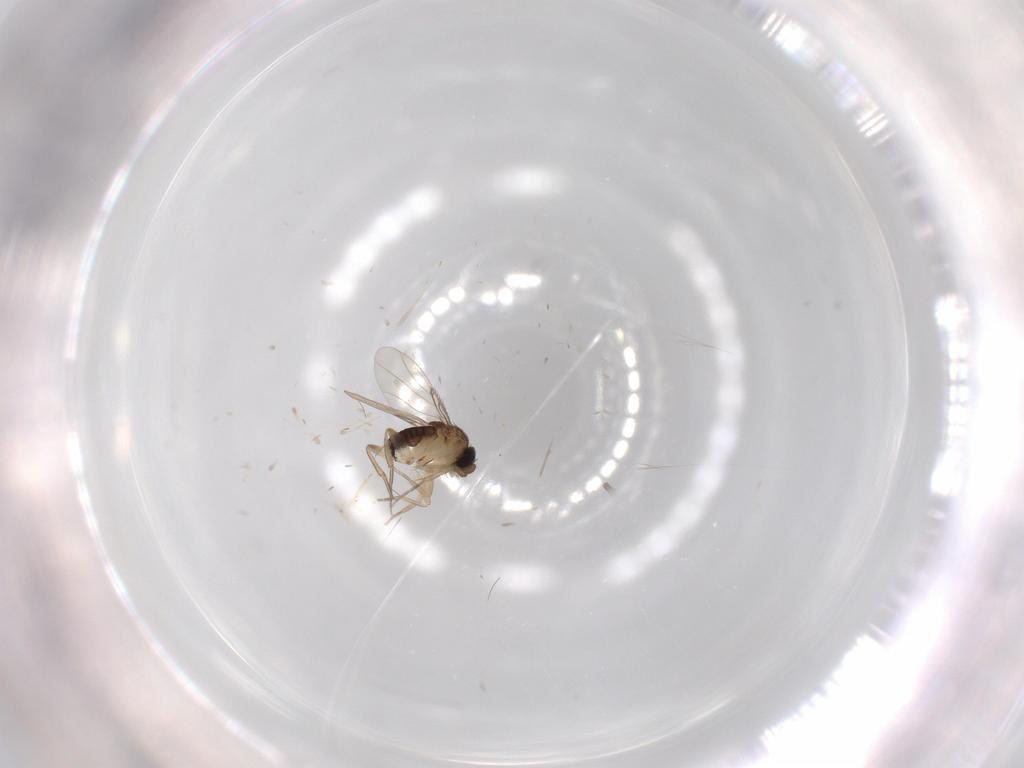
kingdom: Animalia
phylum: Arthropoda
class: Insecta
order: Diptera
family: Phoridae
